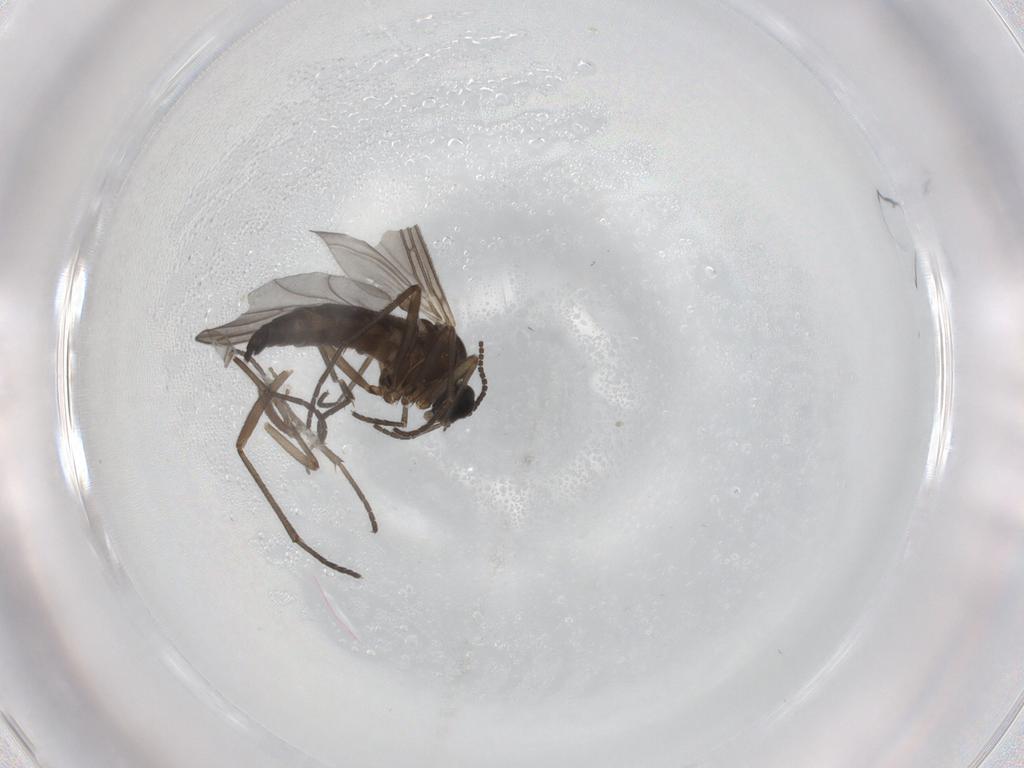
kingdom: Animalia
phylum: Arthropoda
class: Insecta
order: Diptera
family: Sciaridae
